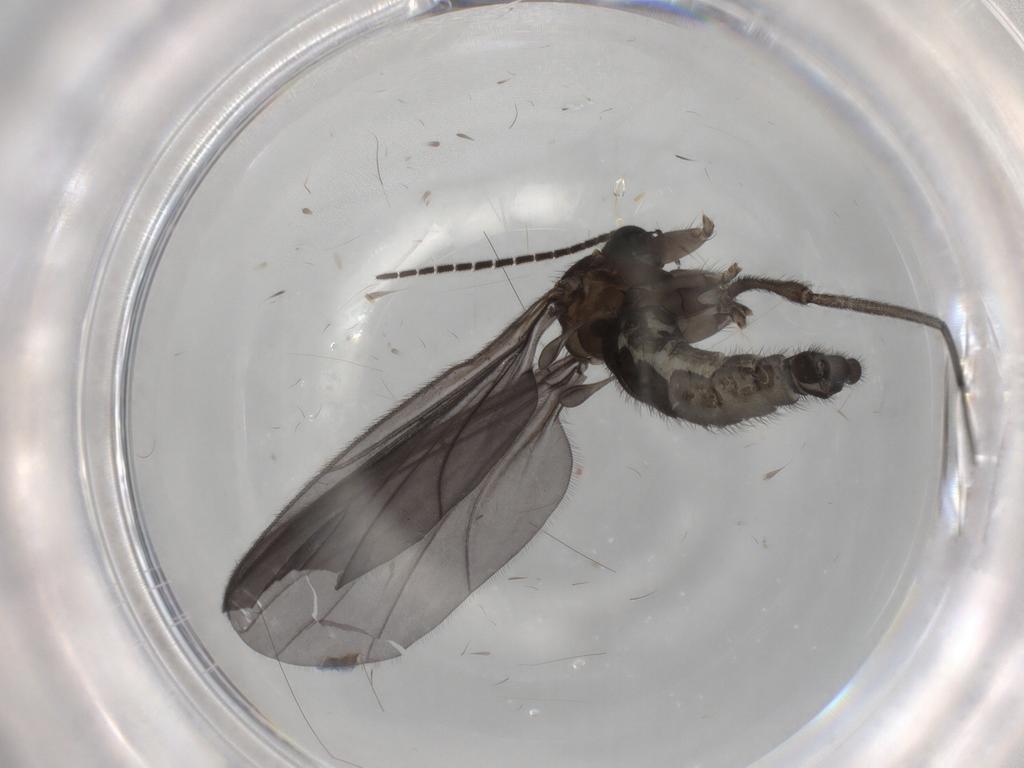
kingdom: Animalia
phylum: Arthropoda
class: Insecta
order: Diptera
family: Sciaridae
